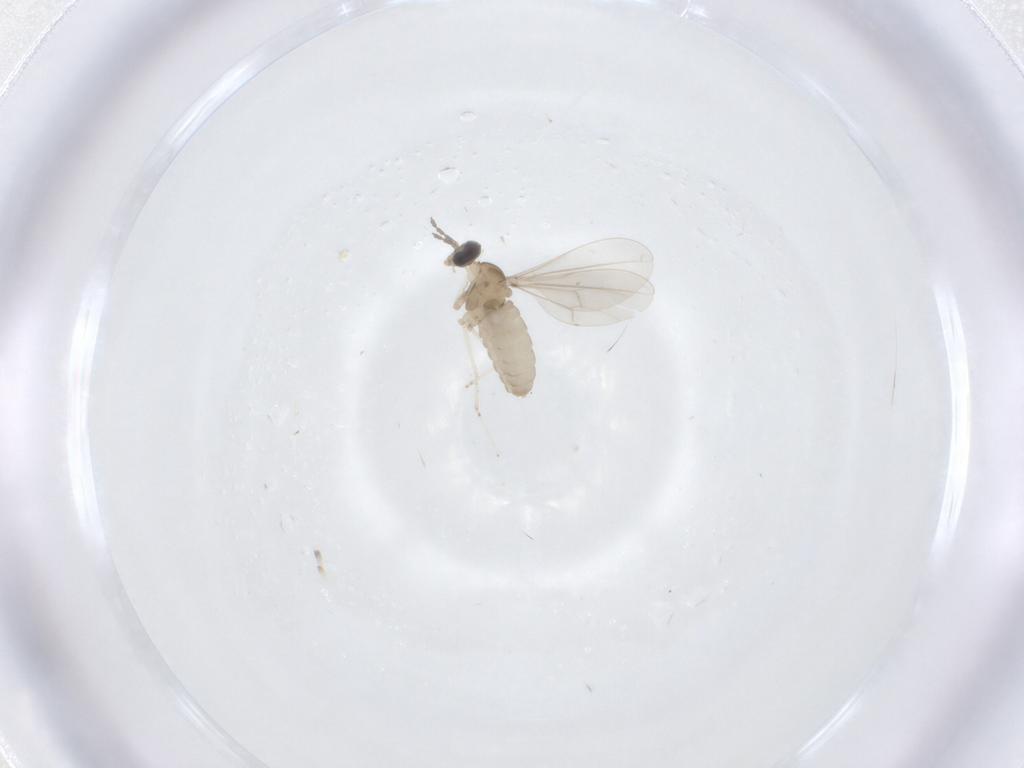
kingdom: Animalia
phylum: Arthropoda
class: Insecta
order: Diptera
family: Cecidomyiidae
